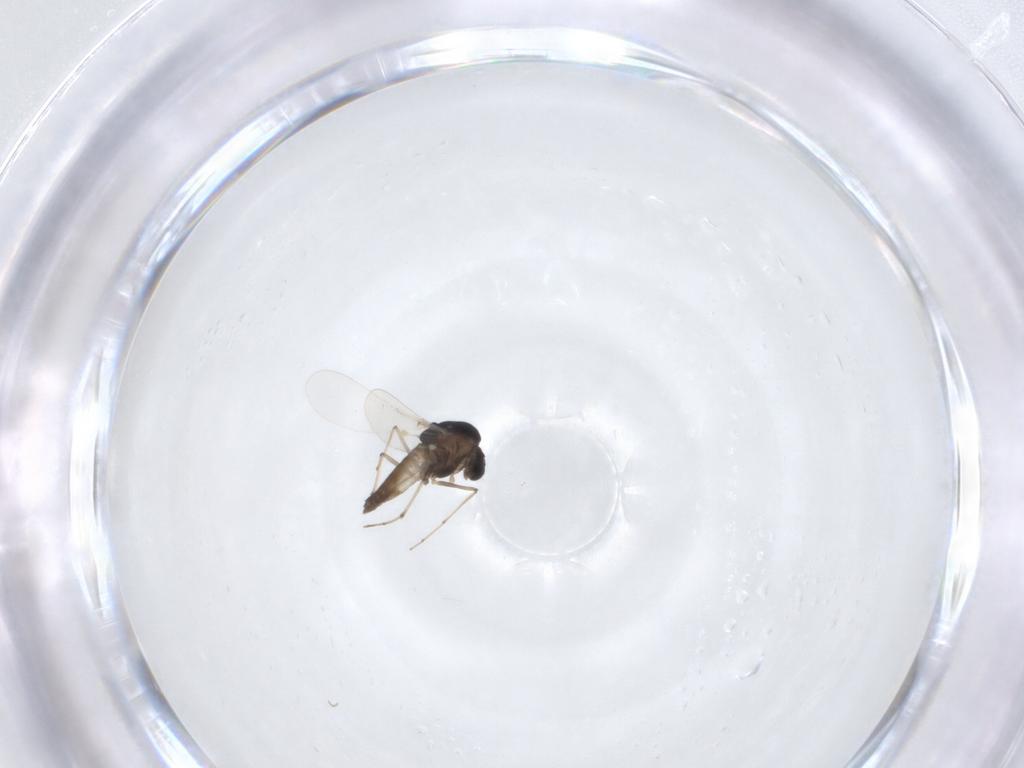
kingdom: Animalia
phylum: Arthropoda
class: Insecta
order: Diptera
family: Chironomidae
